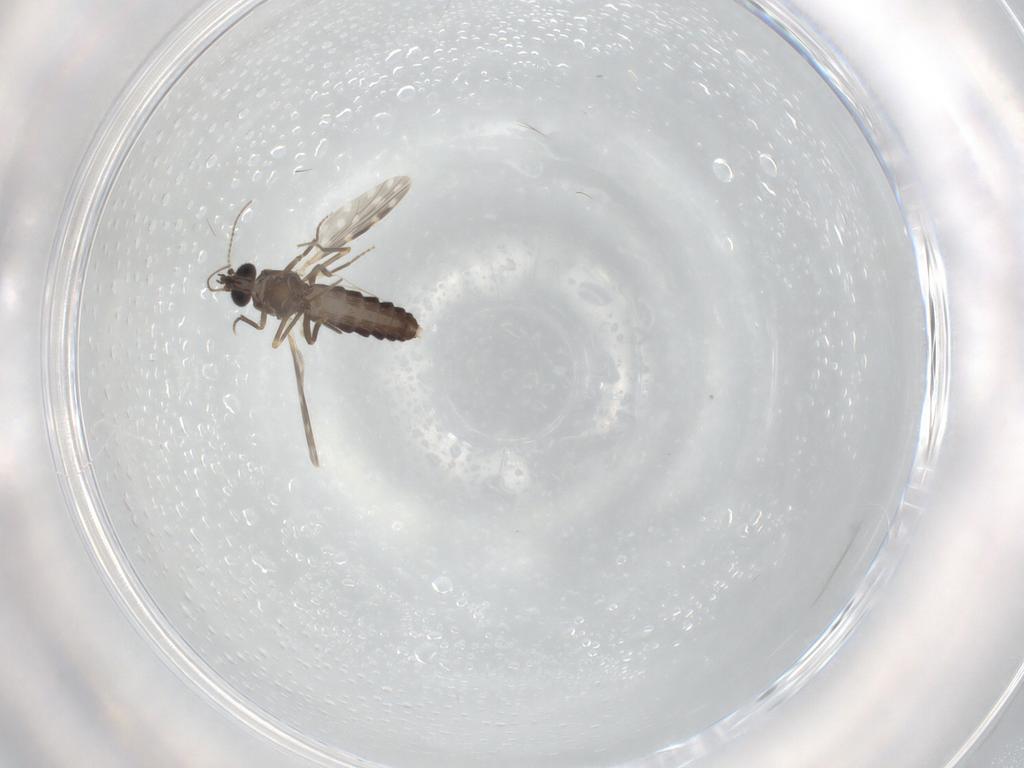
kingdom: Animalia
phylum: Arthropoda
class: Insecta
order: Diptera
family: Ceratopogonidae
